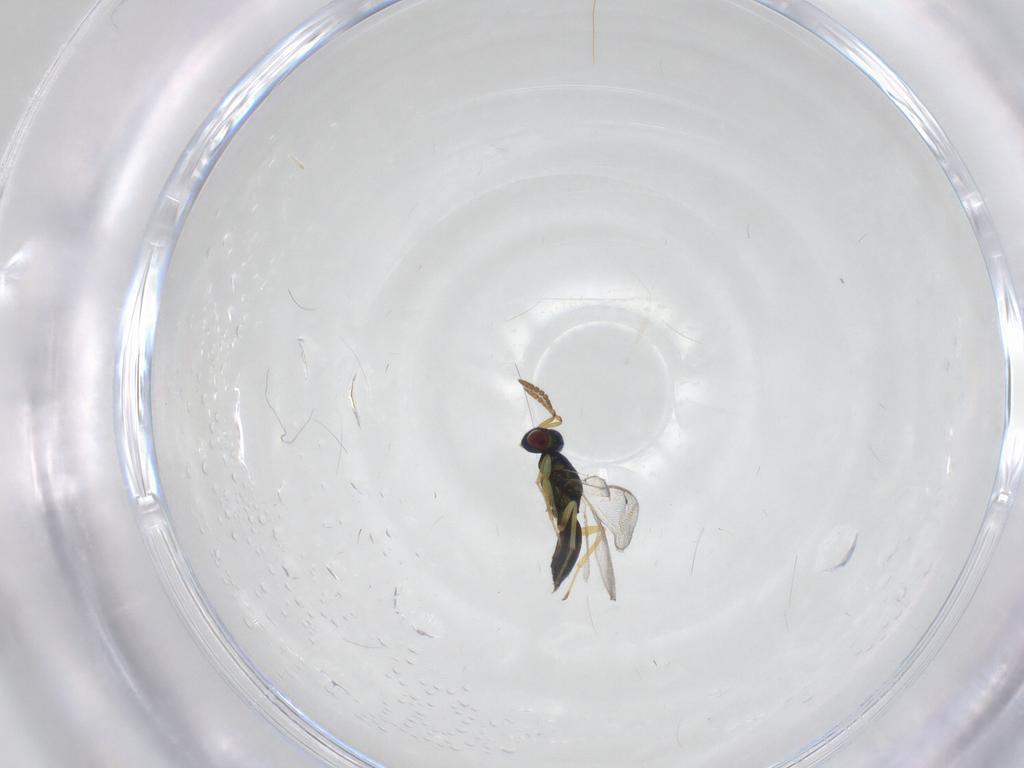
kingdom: Animalia
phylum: Arthropoda
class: Insecta
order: Hymenoptera
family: Pteromalidae
